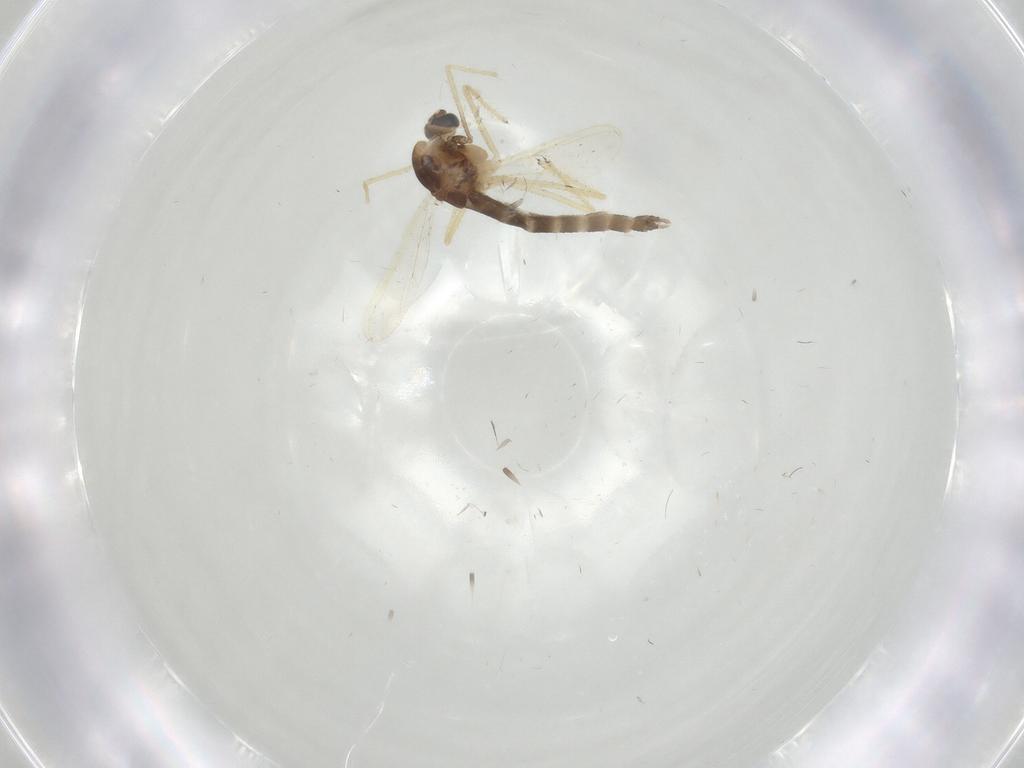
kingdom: Animalia
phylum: Arthropoda
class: Insecta
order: Diptera
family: Chironomidae
